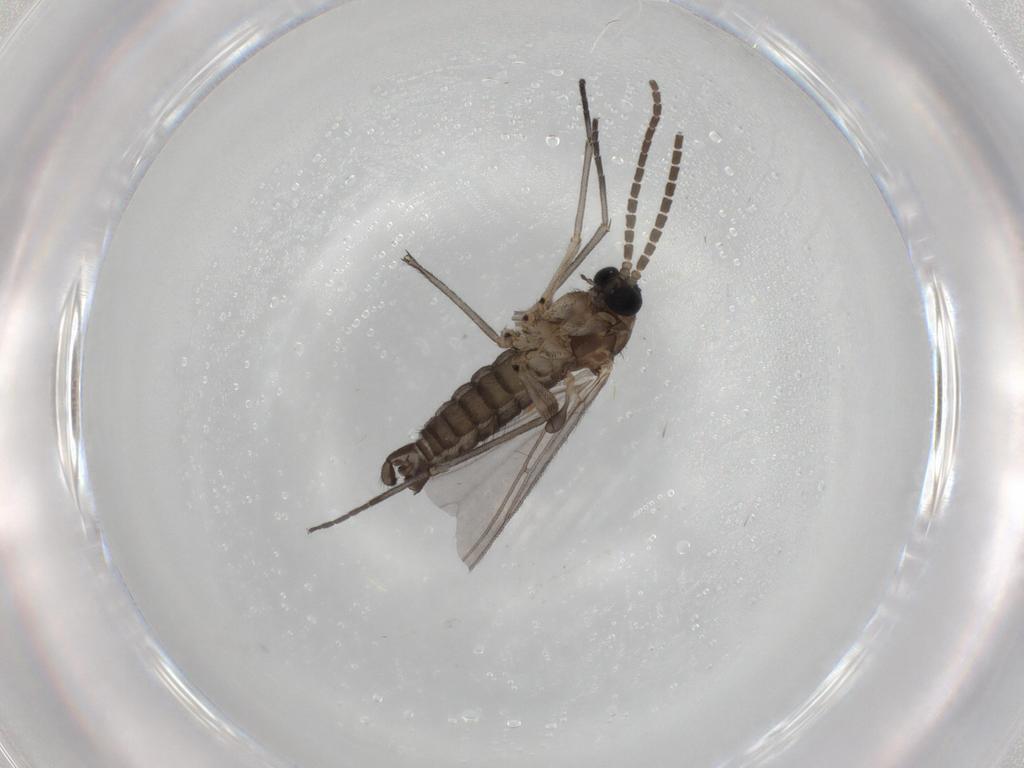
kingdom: Animalia
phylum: Arthropoda
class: Insecta
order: Diptera
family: Sciaridae
